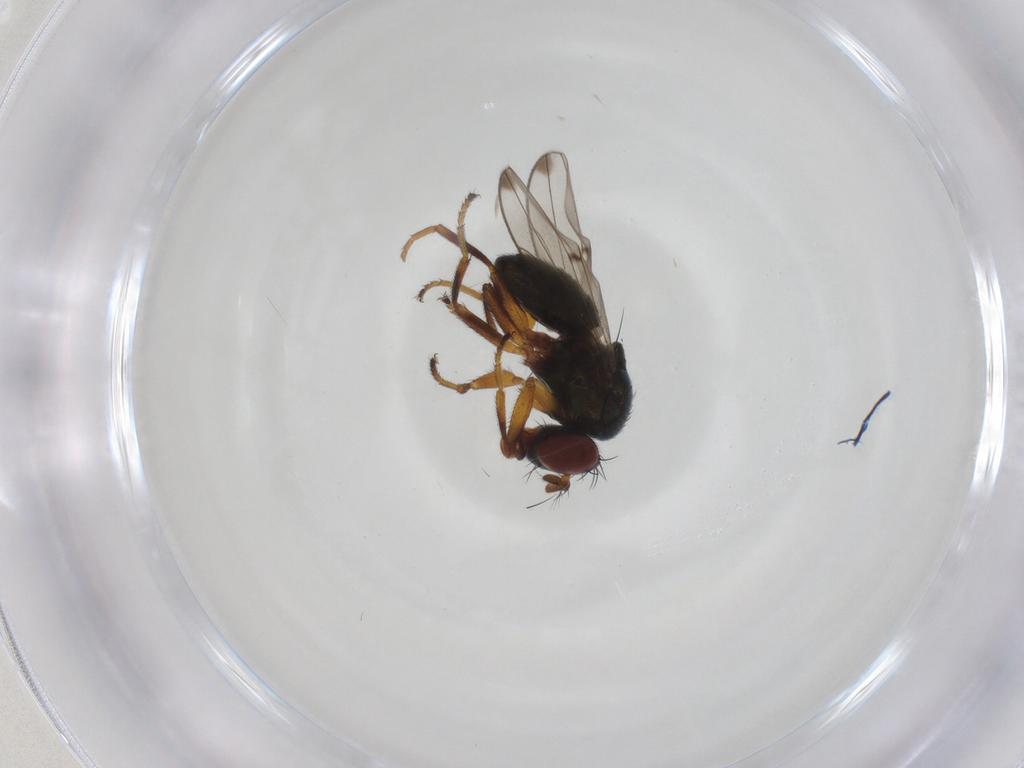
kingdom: Animalia
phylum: Arthropoda
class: Insecta
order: Diptera
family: Ephydridae
